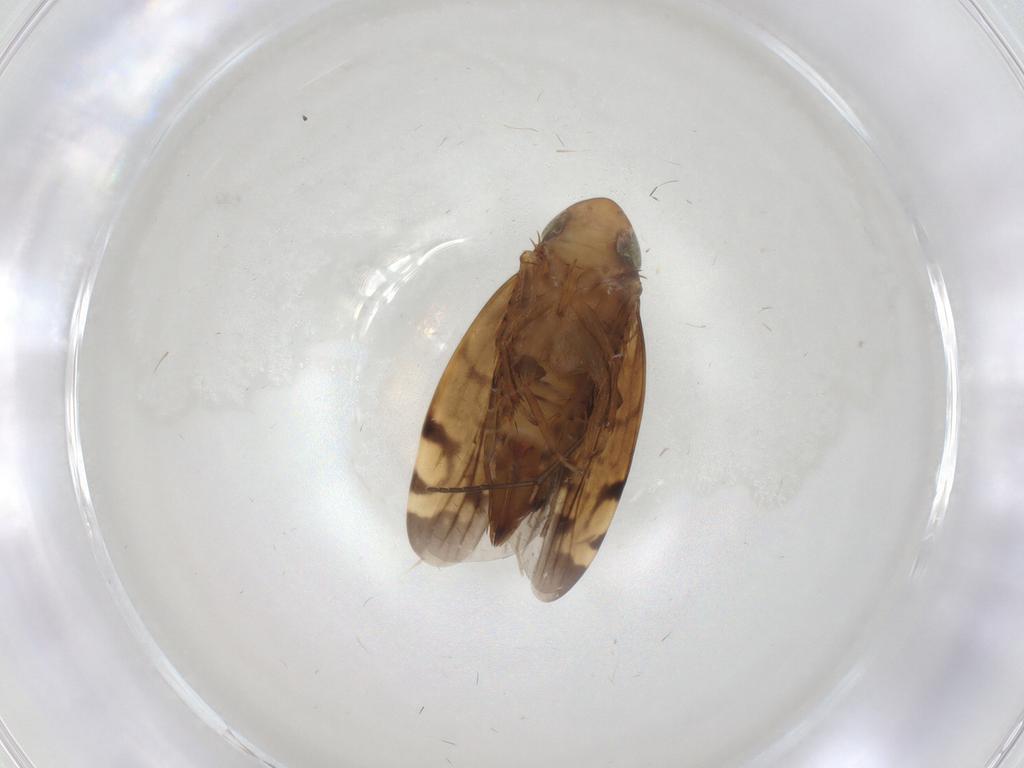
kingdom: Animalia
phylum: Arthropoda
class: Insecta
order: Hemiptera
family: Cicadellidae
